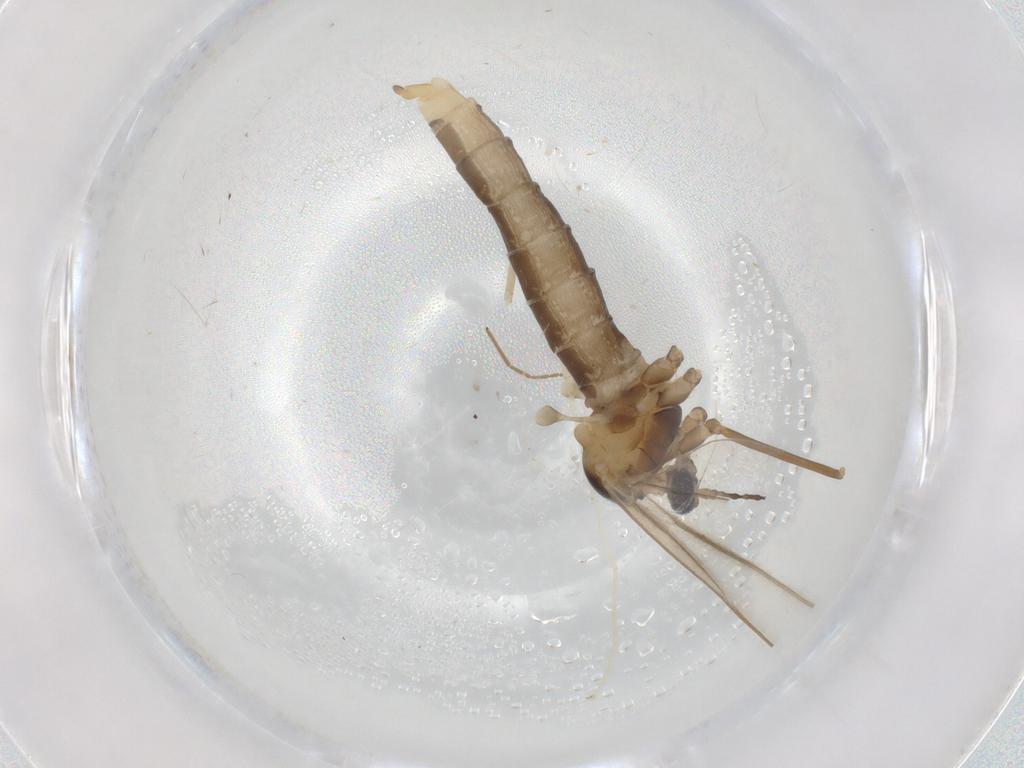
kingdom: Animalia
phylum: Arthropoda
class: Insecta
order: Diptera
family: Cecidomyiidae
